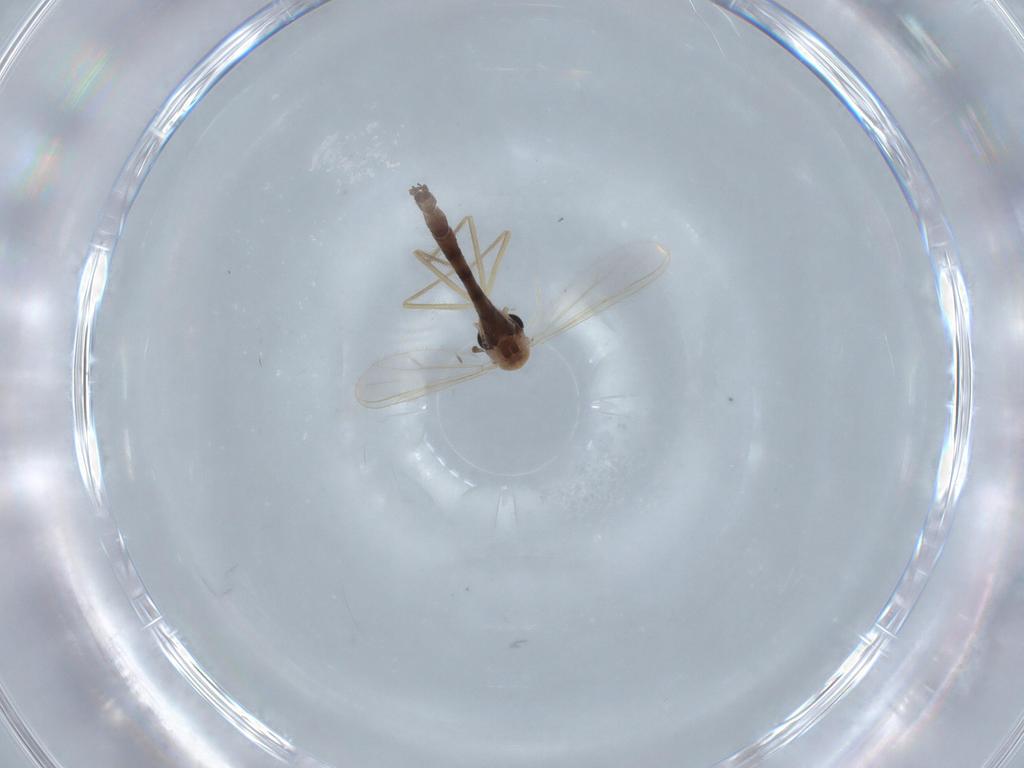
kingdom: Animalia
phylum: Arthropoda
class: Insecta
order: Diptera
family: Chironomidae
